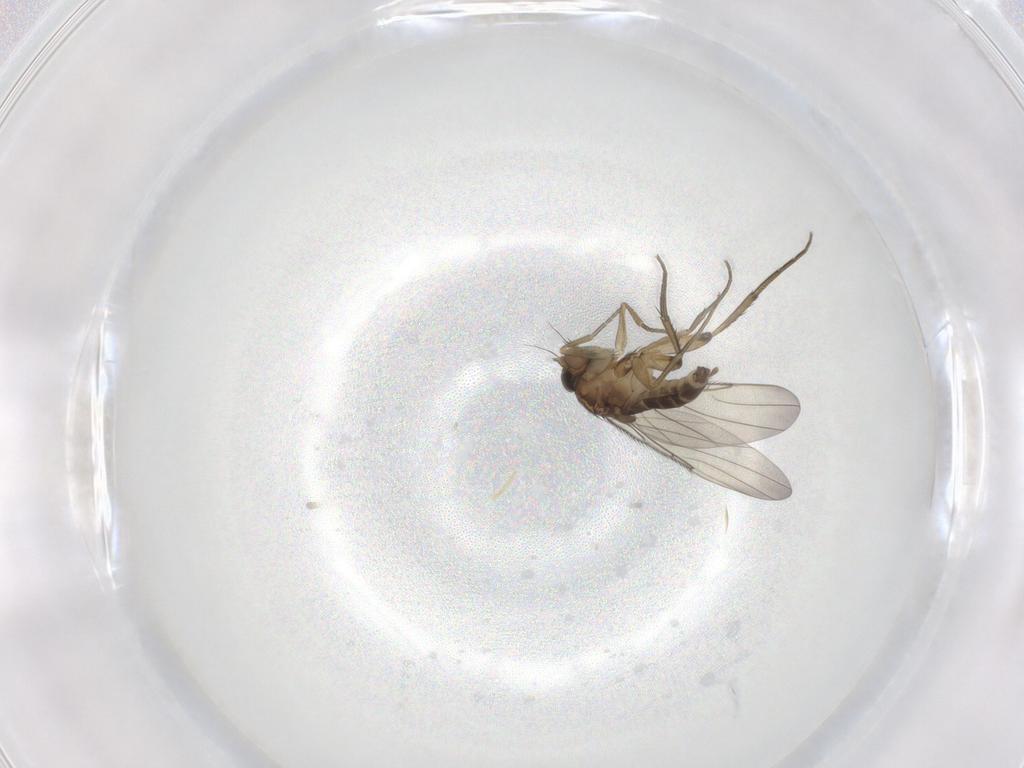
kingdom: Animalia
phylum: Arthropoda
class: Insecta
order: Diptera
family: Phoridae
